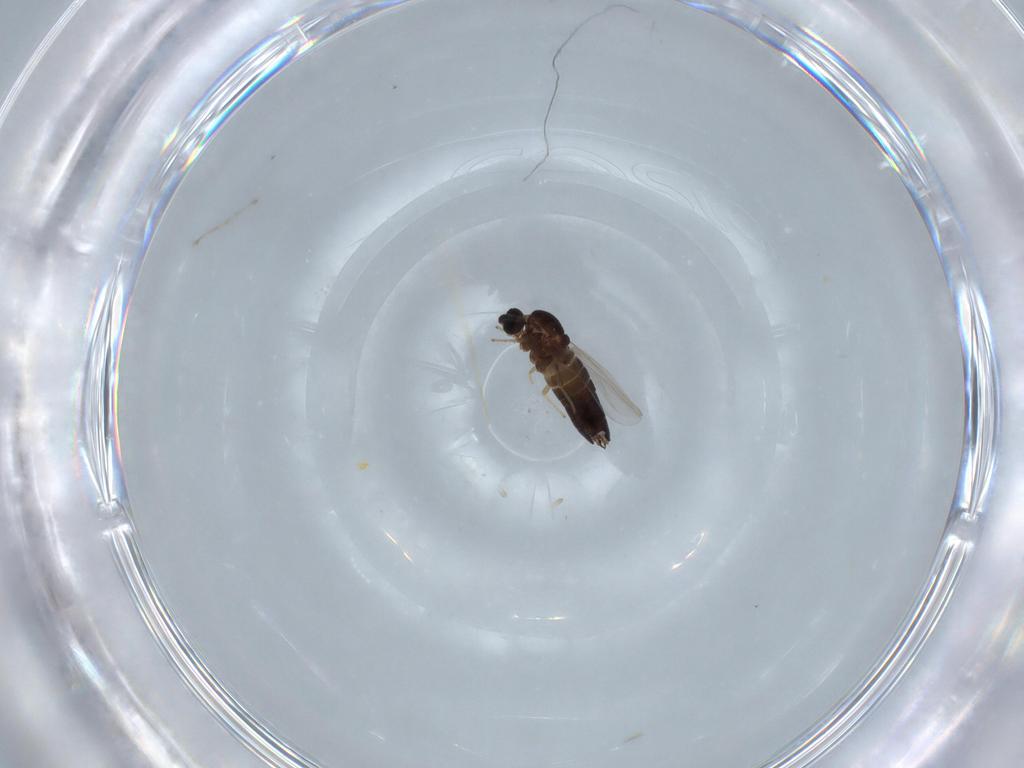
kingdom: Animalia
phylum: Arthropoda
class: Insecta
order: Diptera
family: Scatopsidae
